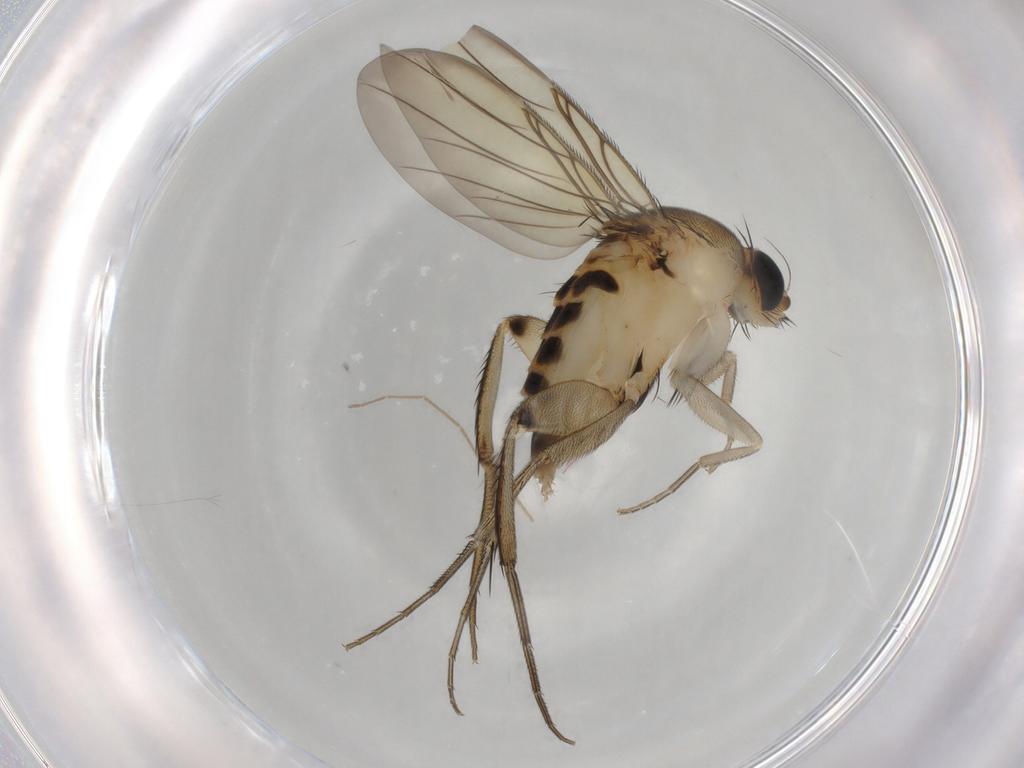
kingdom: Animalia
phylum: Arthropoda
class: Insecta
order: Diptera
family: Phoridae
